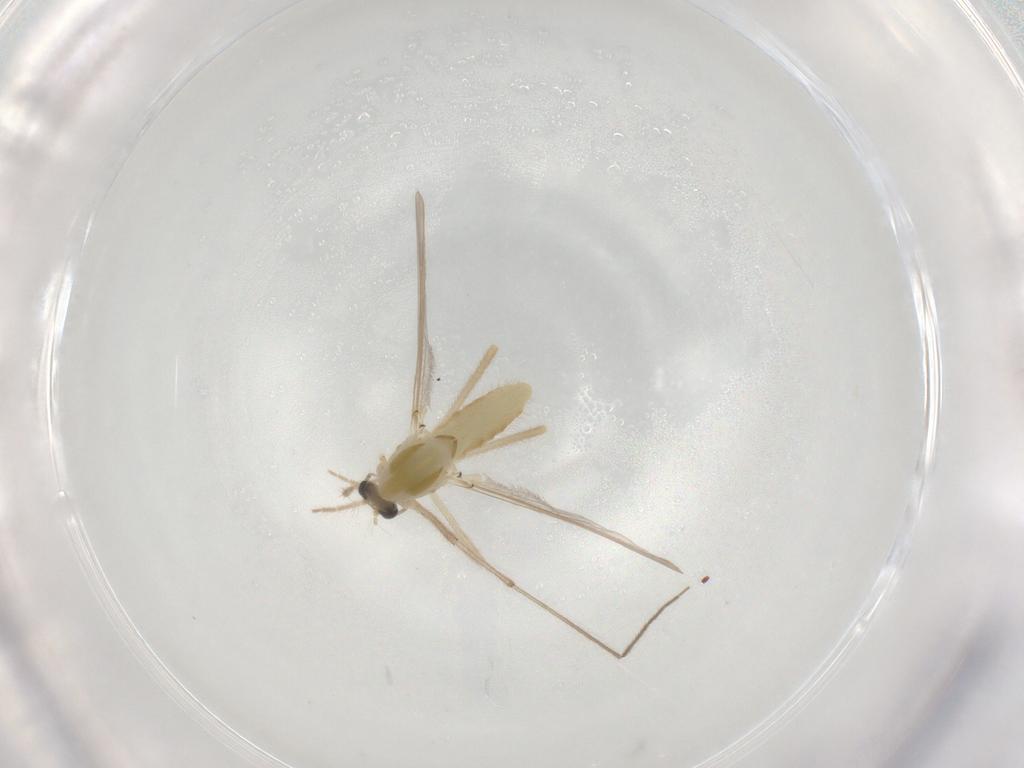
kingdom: Animalia
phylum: Arthropoda
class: Insecta
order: Diptera
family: Chironomidae
